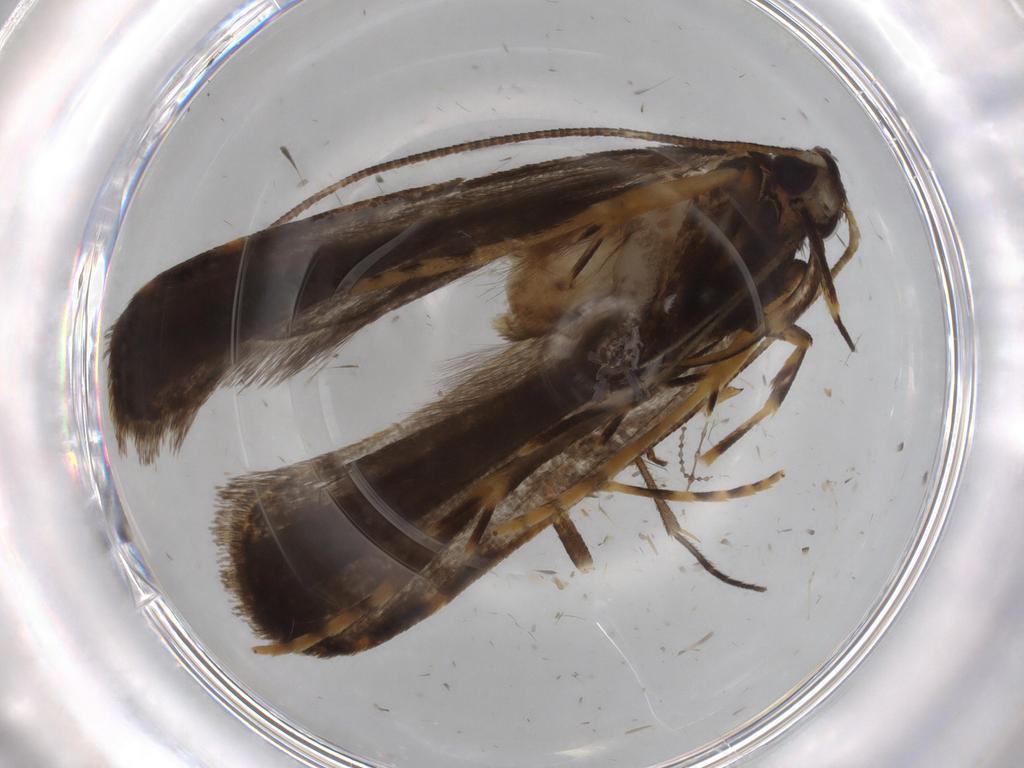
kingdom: Animalia
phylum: Arthropoda
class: Insecta
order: Lepidoptera
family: Cosmopterigidae
